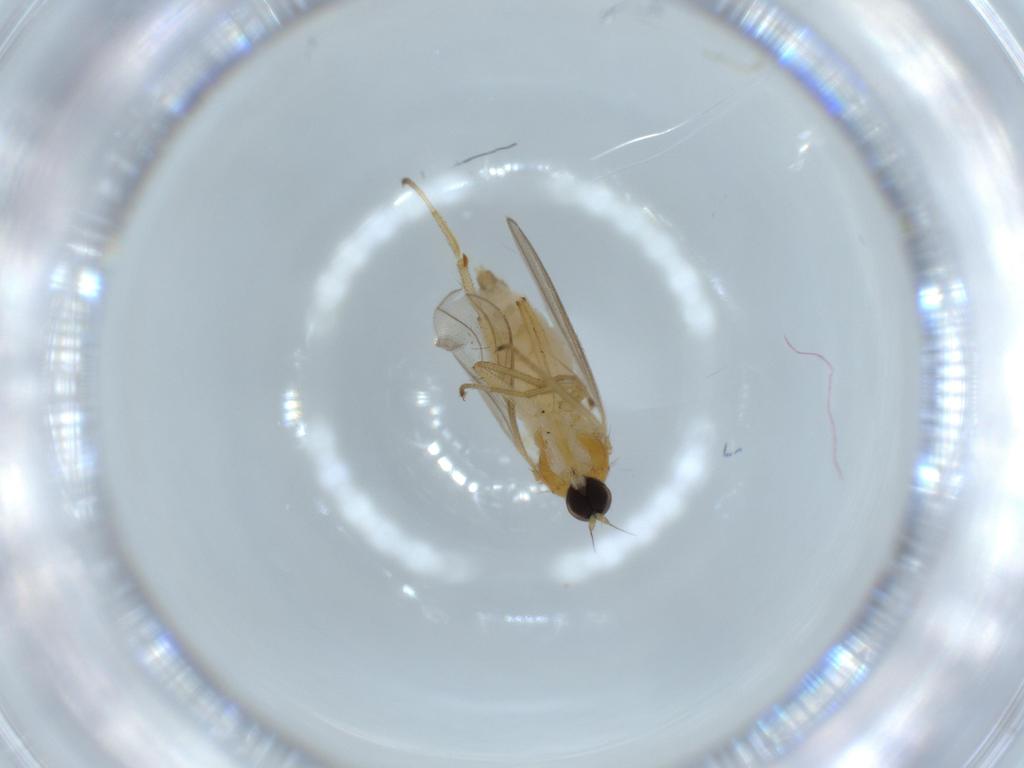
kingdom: Animalia
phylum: Arthropoda
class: Insecta
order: Diptera
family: Hybotidae
